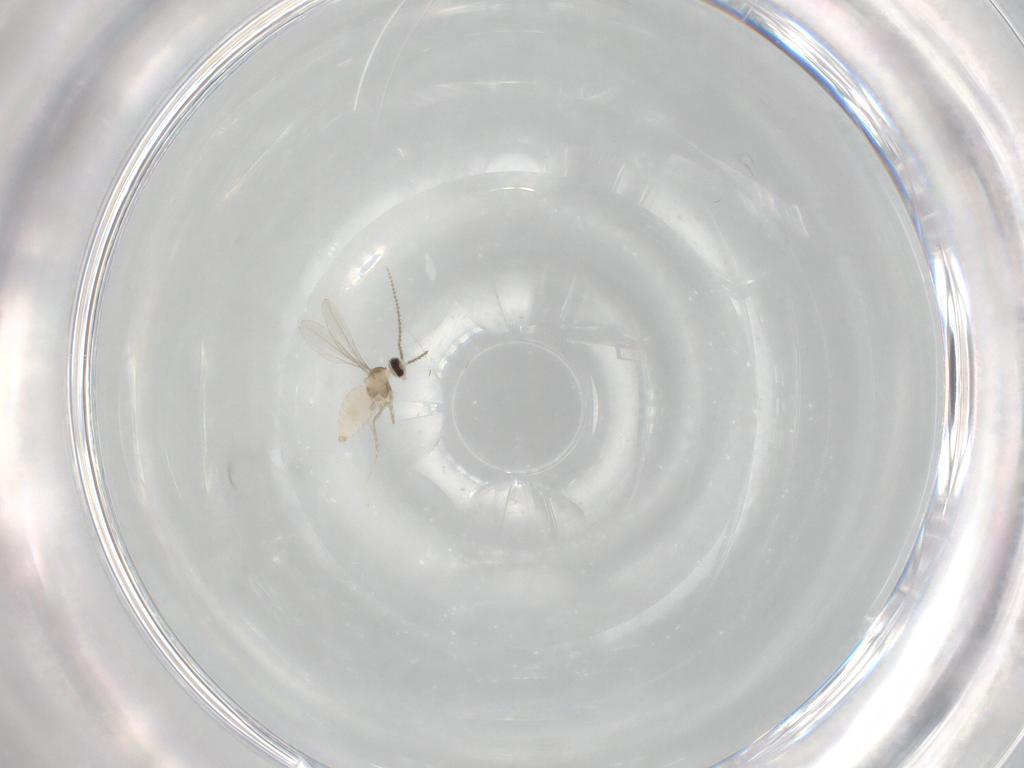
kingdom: Animalia
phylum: Arthropoda
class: Insecta
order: Diptera
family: Cecidomyiidae
